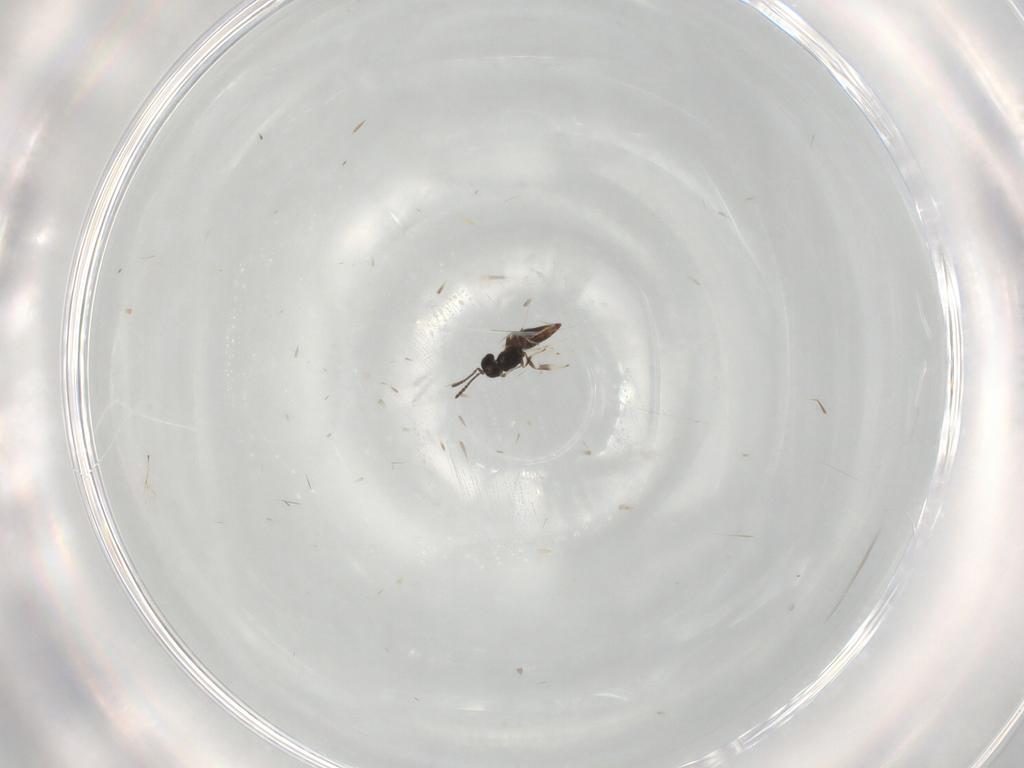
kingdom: Animalia
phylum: Arthropoda
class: Insecta
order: Hymenoptera
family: Scelionidae
